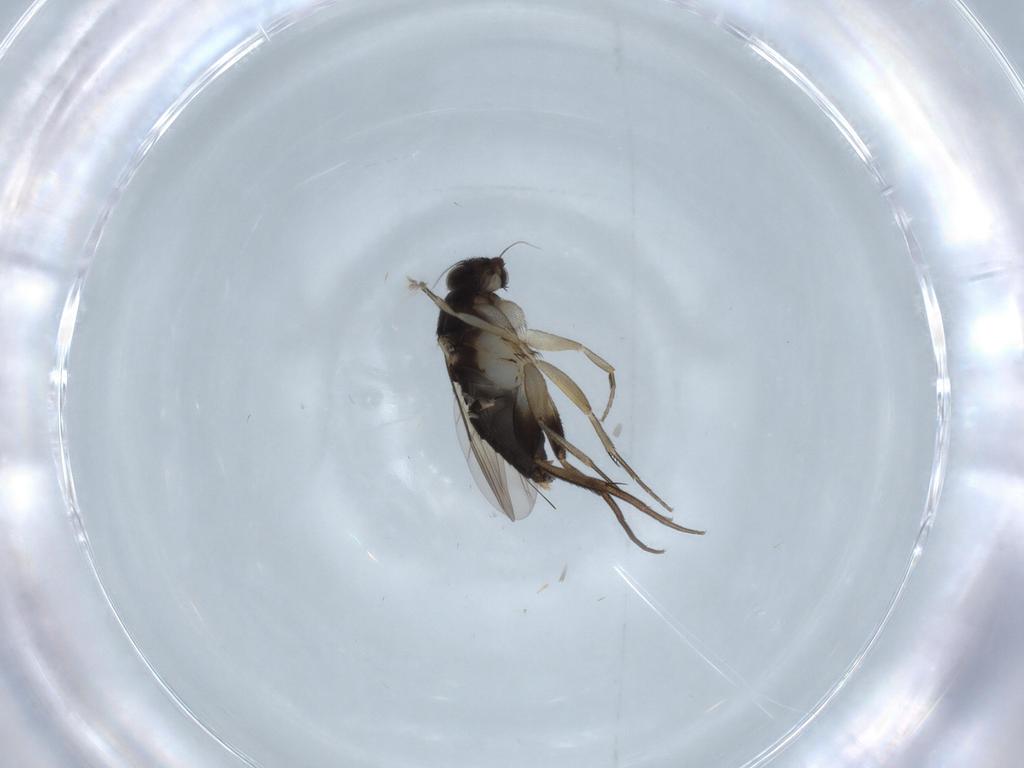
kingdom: Animalia
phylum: Arthropoda
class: Insecta
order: Diptera
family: Phoridae
